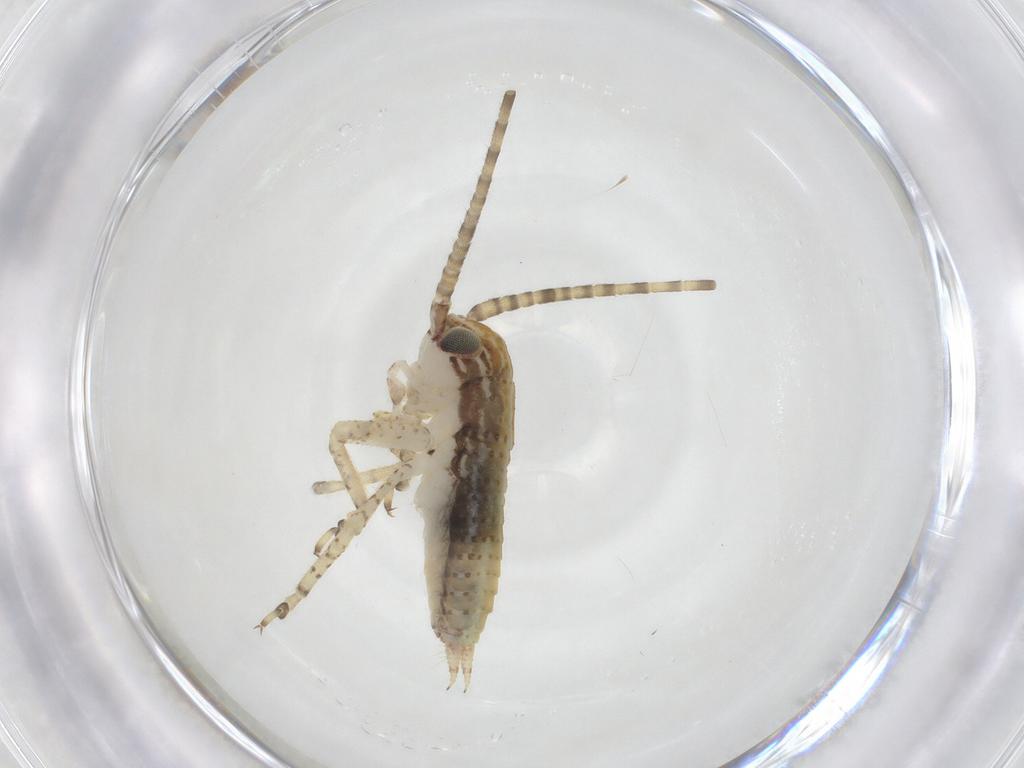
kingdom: Animalia
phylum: Arthropoda
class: Insecta
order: Orthoptera
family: Gryllidae
